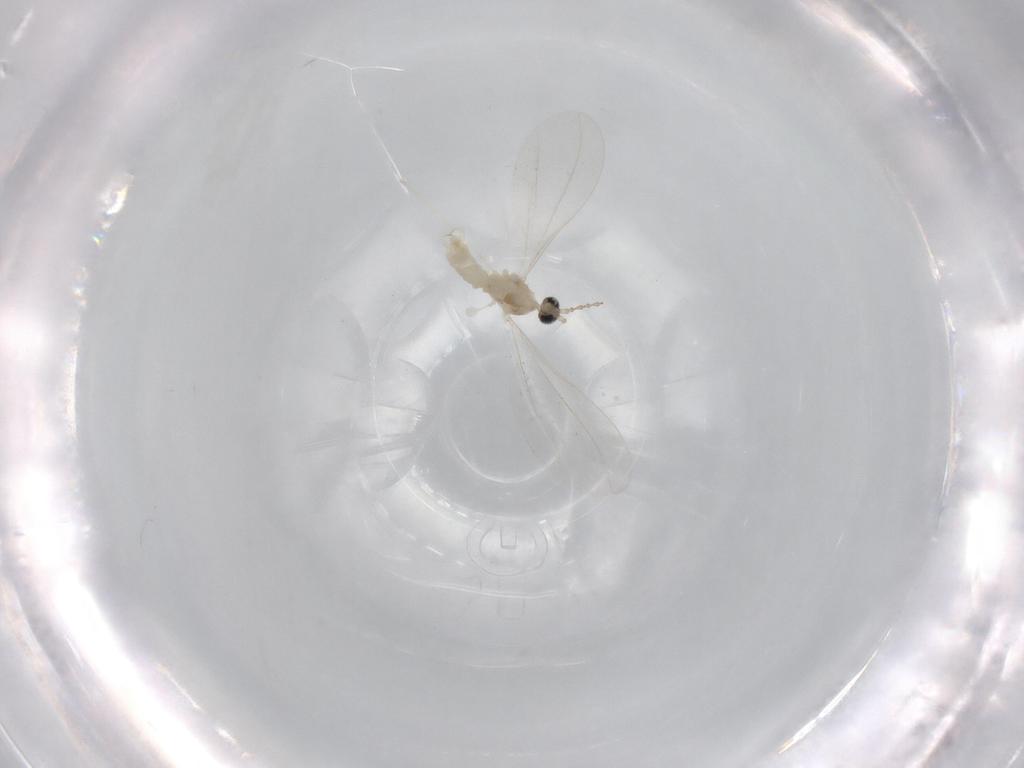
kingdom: Animalia
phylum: Arthropoda
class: Insecta
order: Diptera
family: Cecidomyiidae
